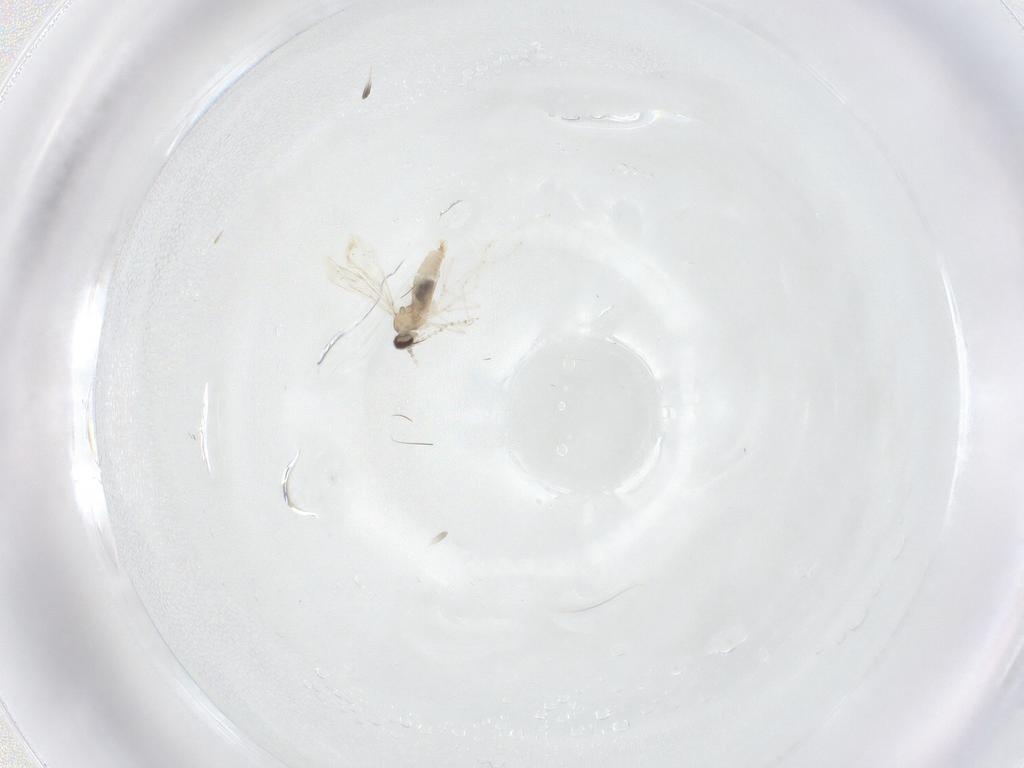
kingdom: Animalia
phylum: Arthropoda
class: Insecta
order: Diptera
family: Cecidomyiidae
